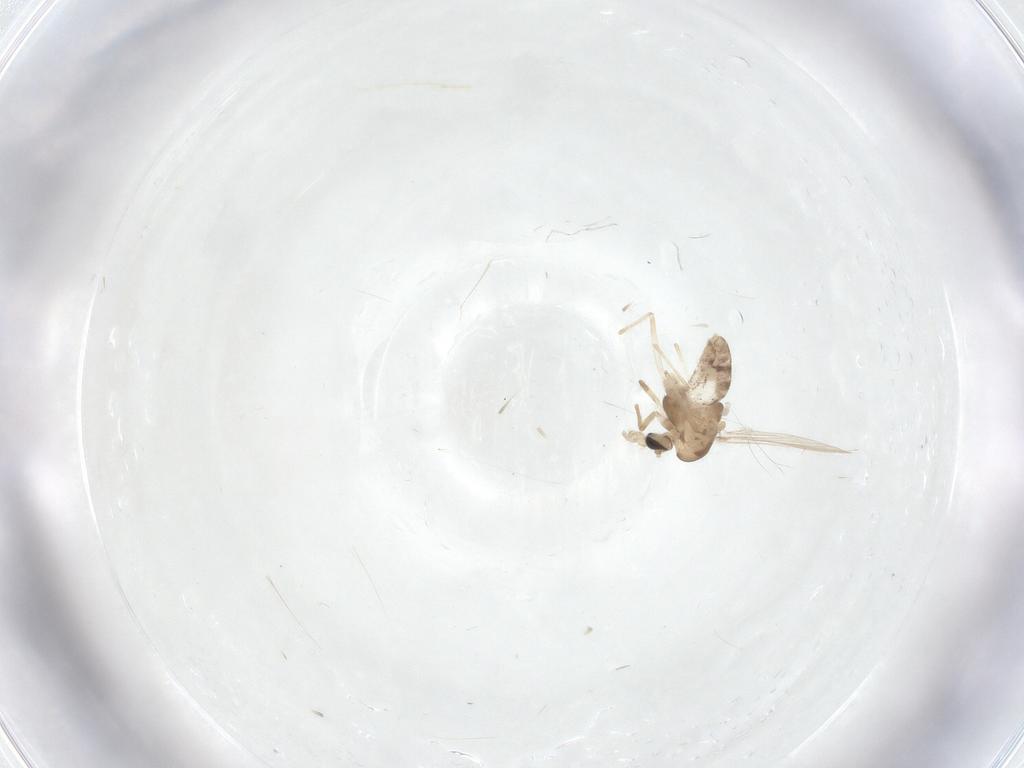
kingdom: Animalia
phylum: Arthropoda
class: Insecta
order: Diptera
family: Chironomidae
